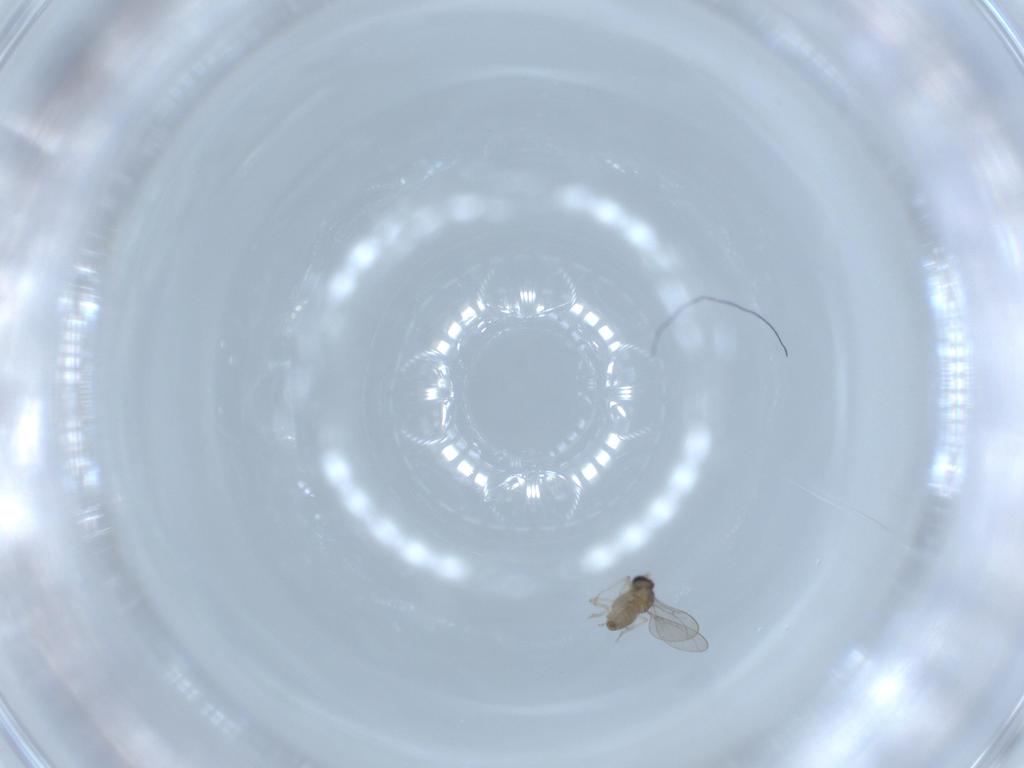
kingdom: Animalia
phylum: Arthropoda
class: Insecta
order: Diptera
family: Cecidomyiidae
